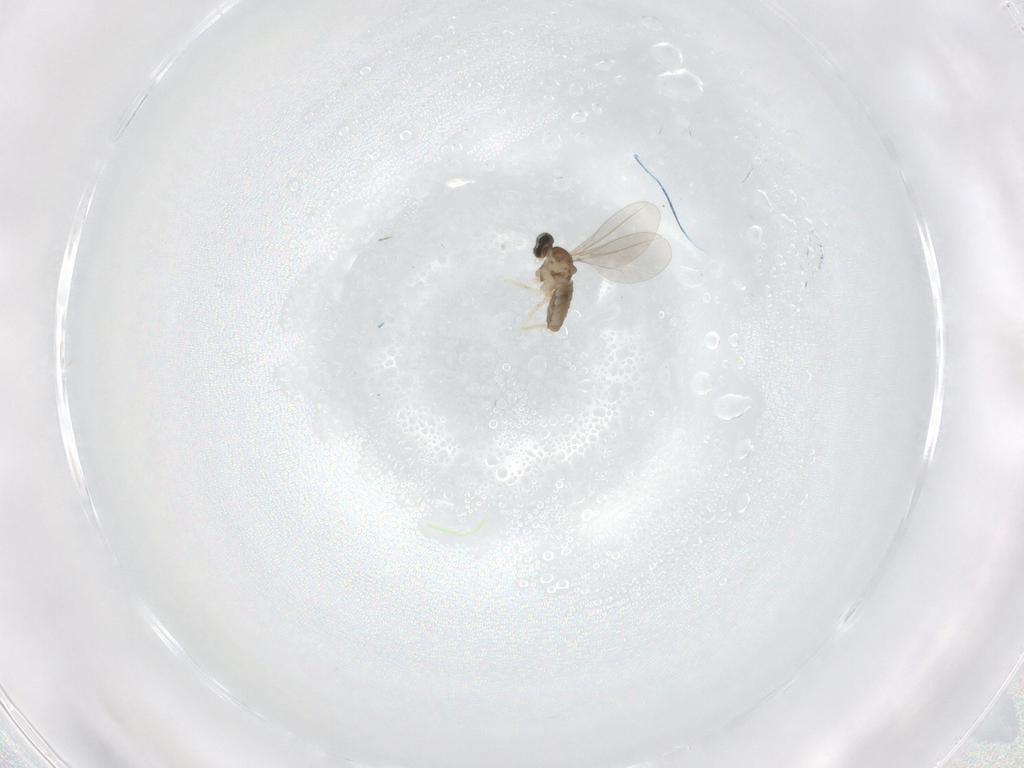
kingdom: Animalia
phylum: Arthropoda
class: Insecta
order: Diptera
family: Cecidomyiidae
